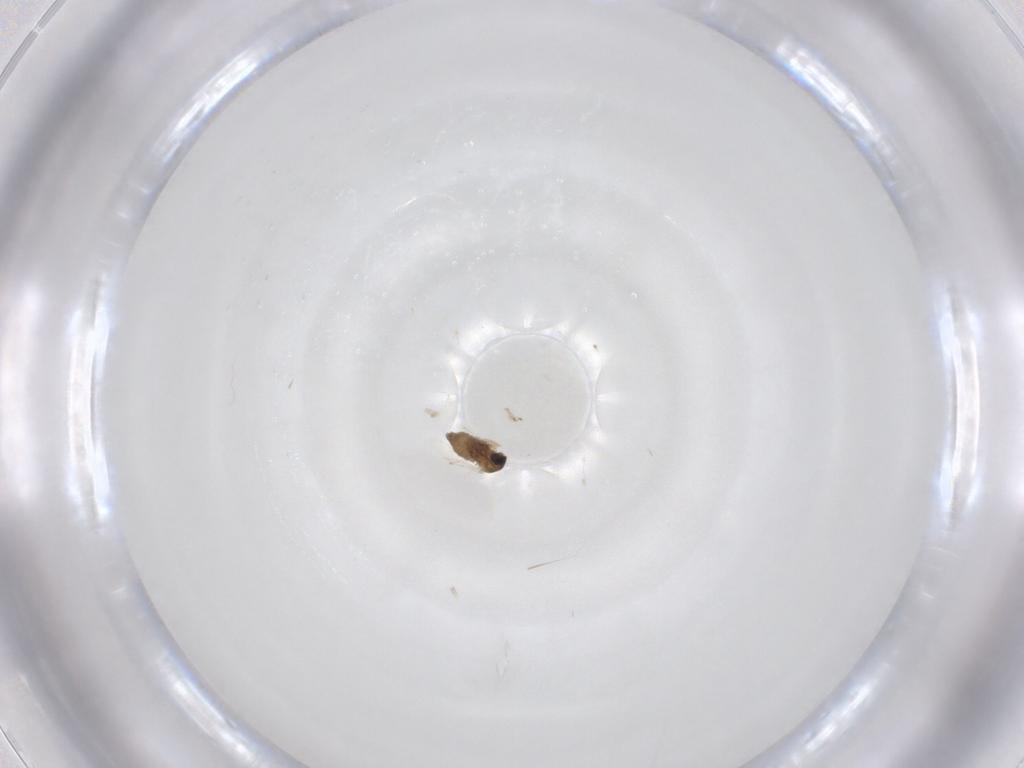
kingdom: Animalia
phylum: Arthropoda
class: Insecta
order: Diptera
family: Cecidomyiidae
